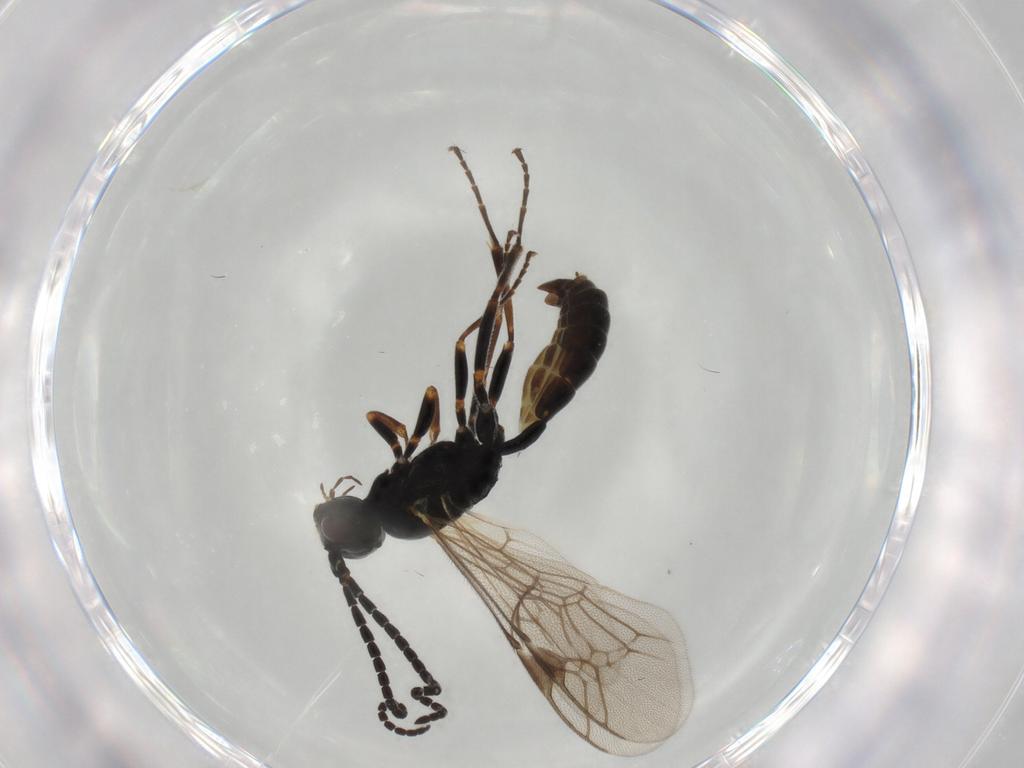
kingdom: Animalia
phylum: Arthropoda
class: Insecta
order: Hymenoptera
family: Ichneumonidae
